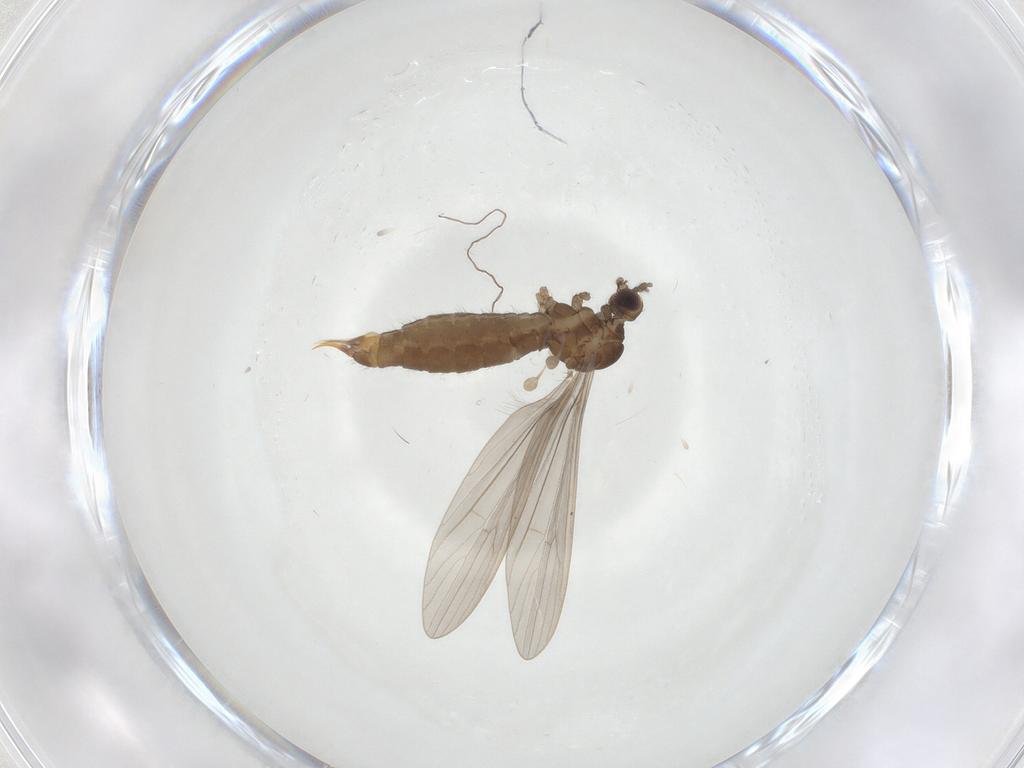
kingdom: Animalia
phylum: Arthropoda
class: Insecta
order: Diptera
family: Limoniidae
